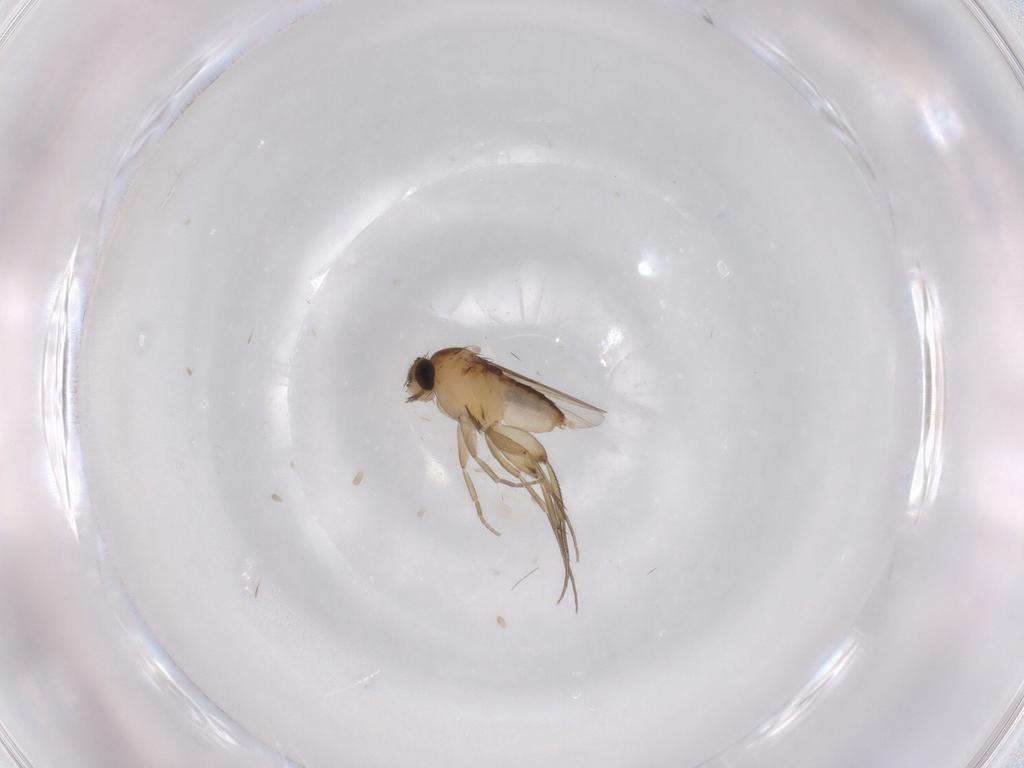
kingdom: Animalia
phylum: Arthropoda
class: Insecta
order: Diptera
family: Phoridae
